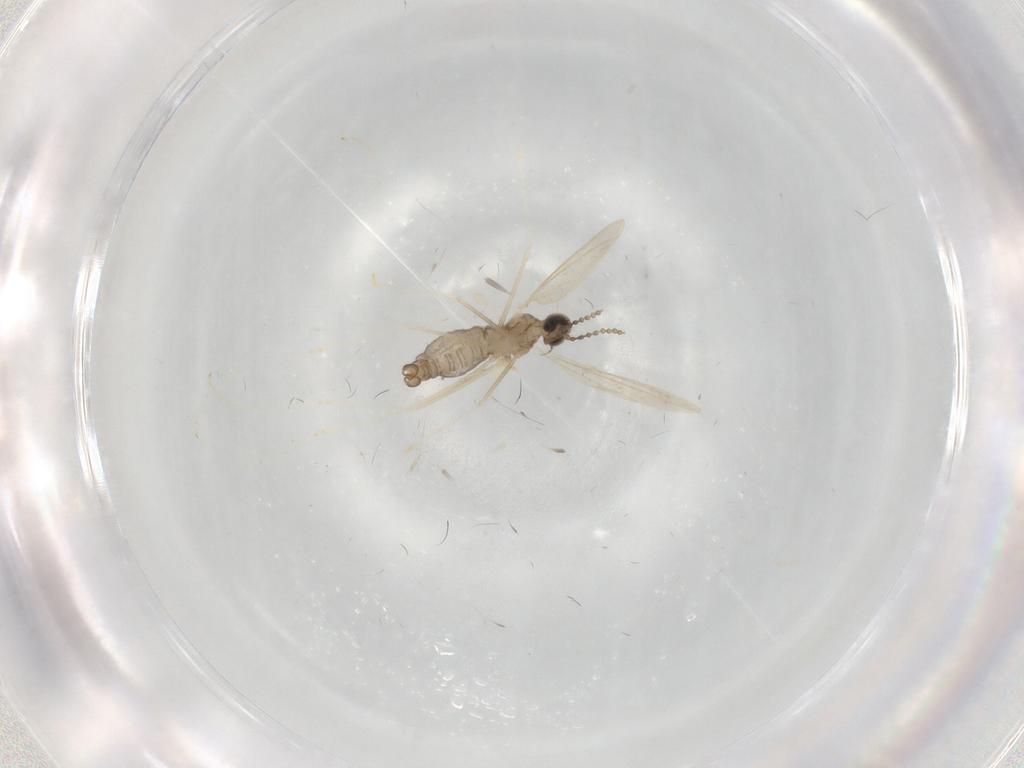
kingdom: Animalia
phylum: Arthropoda
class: Insecta
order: Diptera
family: Cecidomyiidae
